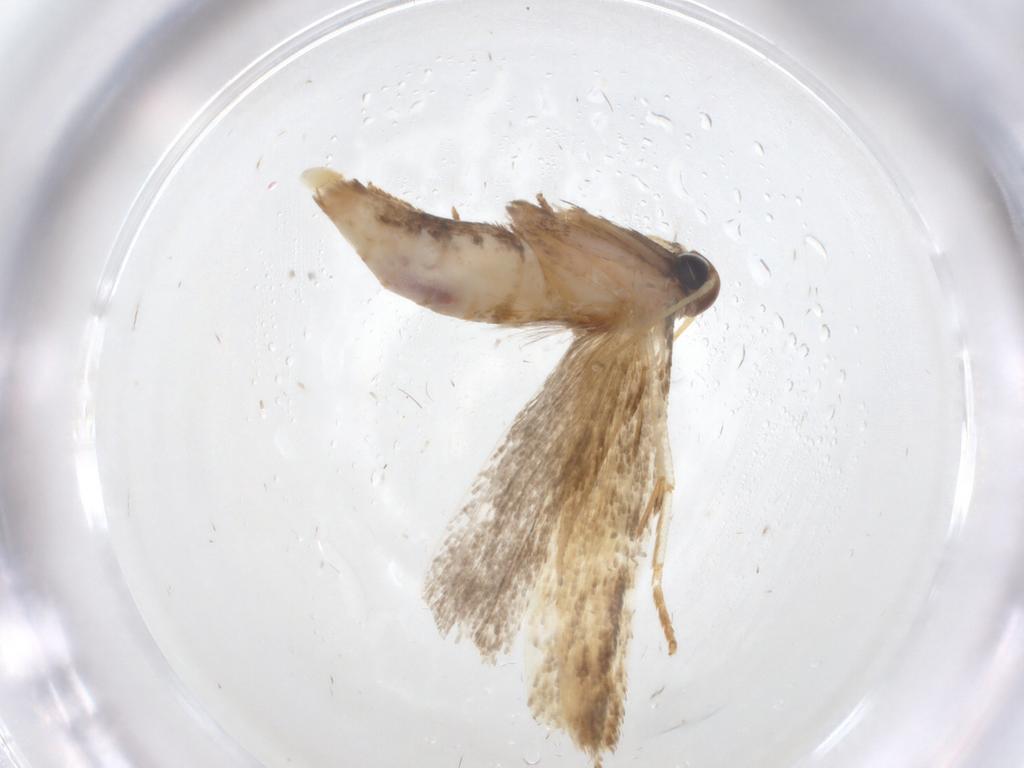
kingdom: Animalia
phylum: Arthropoda
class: Insecta
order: Lepidoptera
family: Gelechiidae
